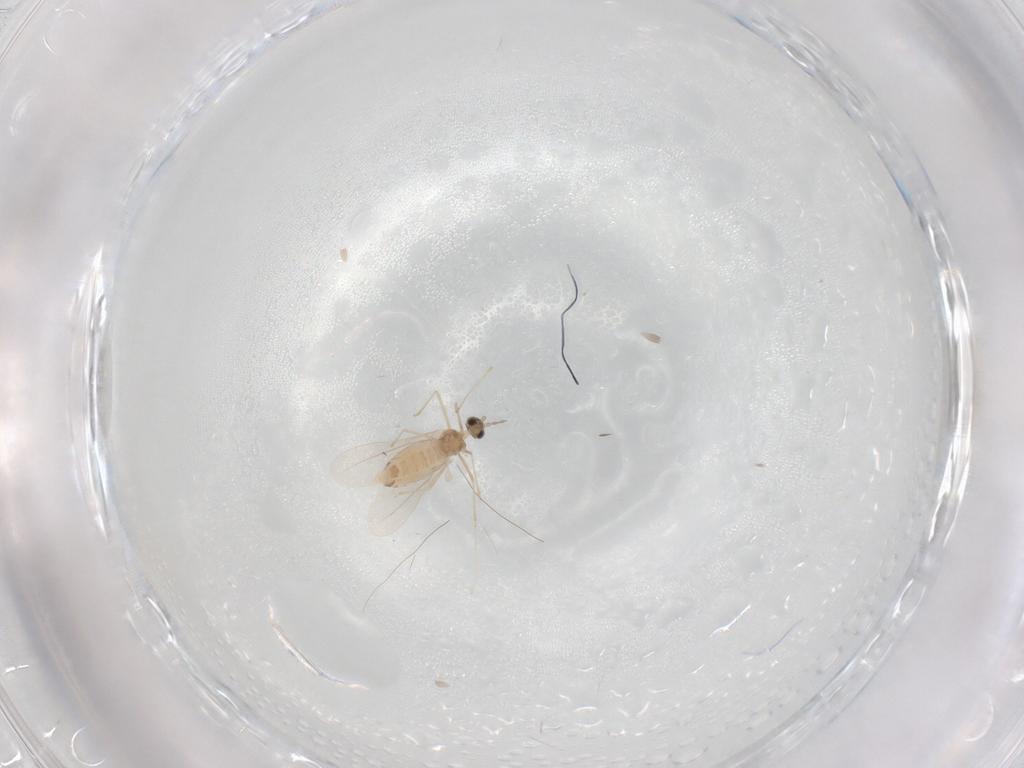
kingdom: Animalia
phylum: Arthropoda
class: Insecta
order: Diptera
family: Cecidomyiidae
